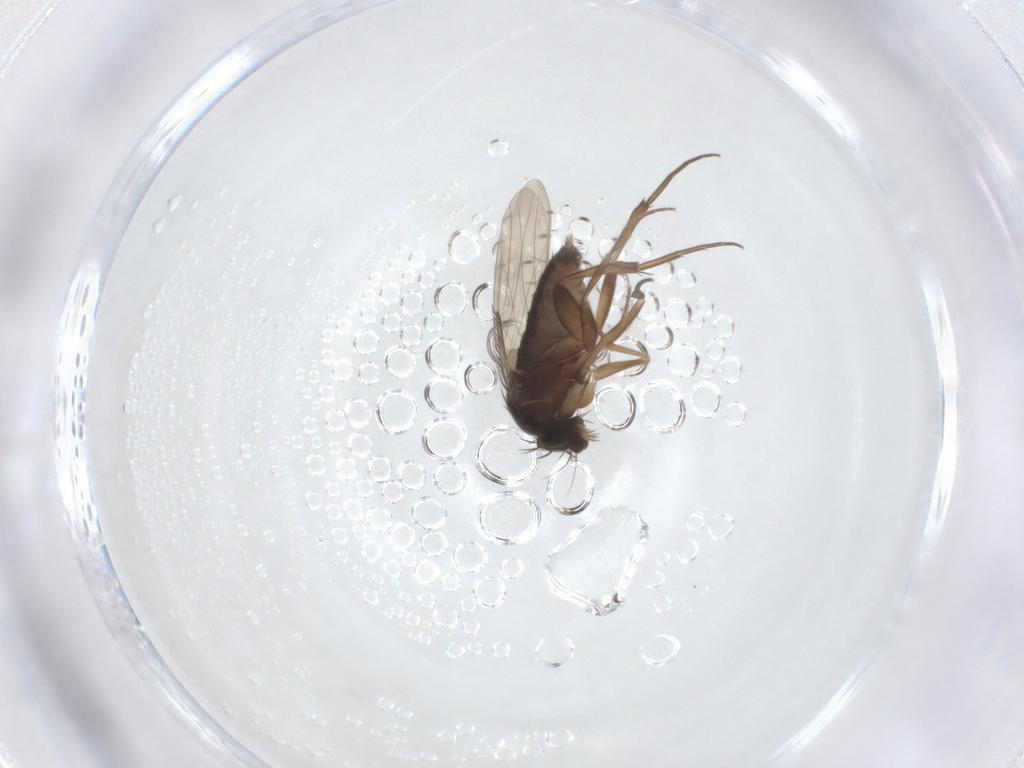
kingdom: Animalia
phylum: Arthropoda
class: Insecta
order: Diptera
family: Phoridae
